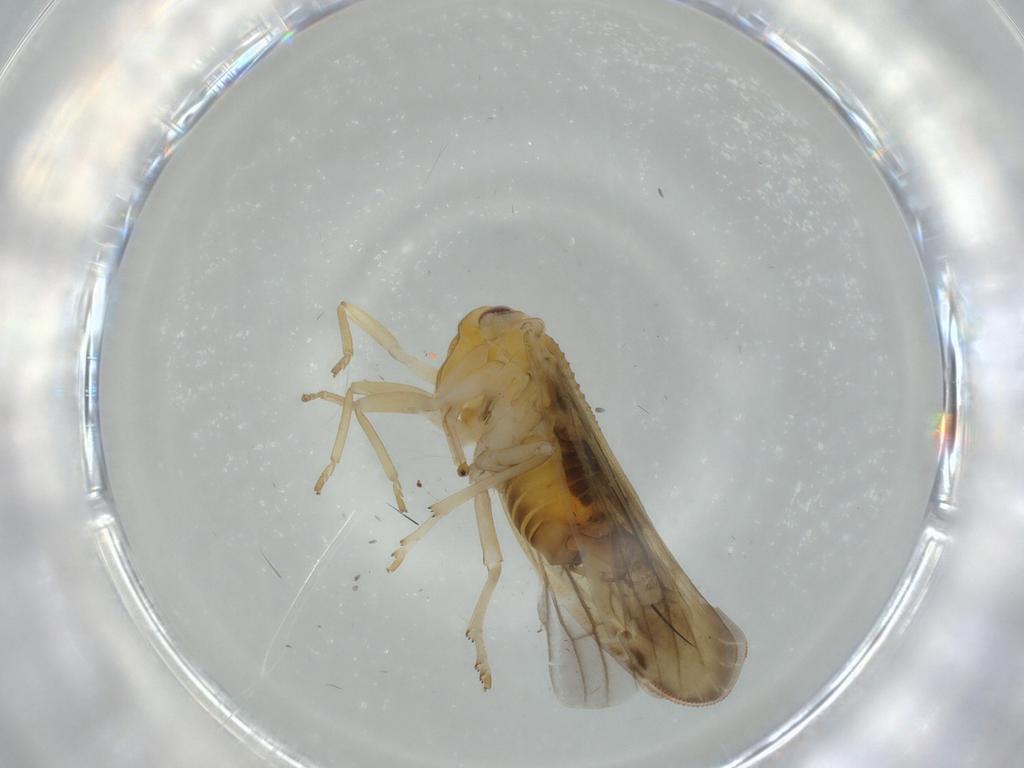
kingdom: Animalia
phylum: Arthropoda
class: Insecta
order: Hemiptera
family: Derbidae
